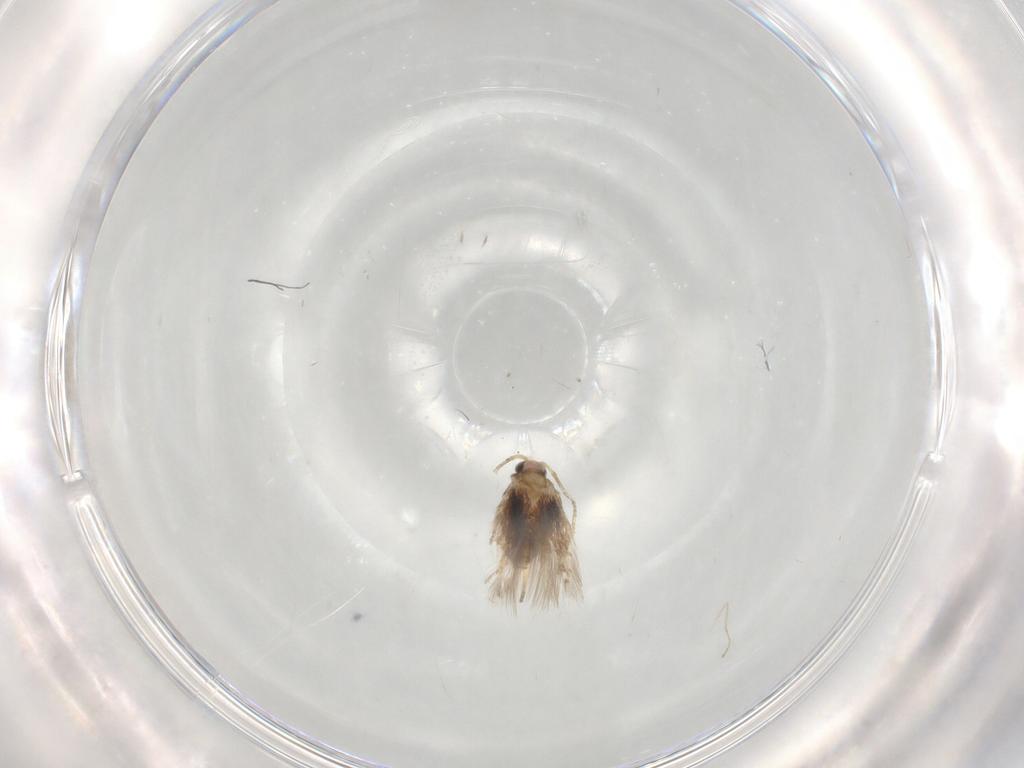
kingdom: Animalia
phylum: Arthropoda
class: Insecta
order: Lepidoptera
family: Nepticulidae
